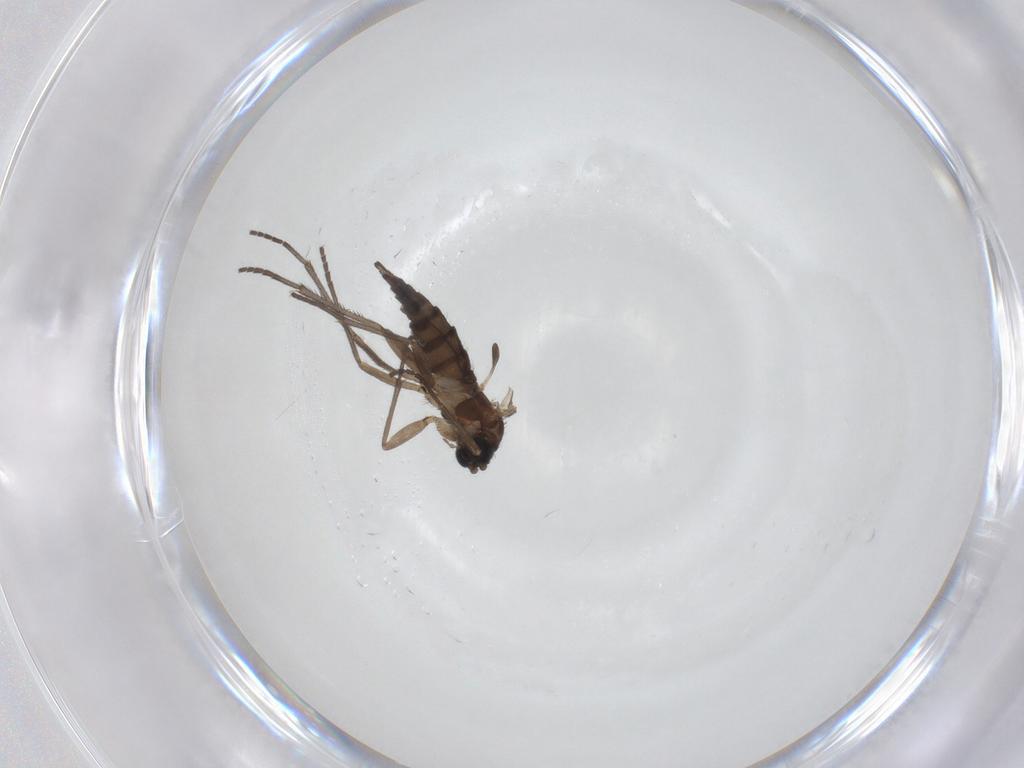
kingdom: Animalia
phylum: Arthropoda
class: Insecta
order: Diptera
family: Sciaridae
